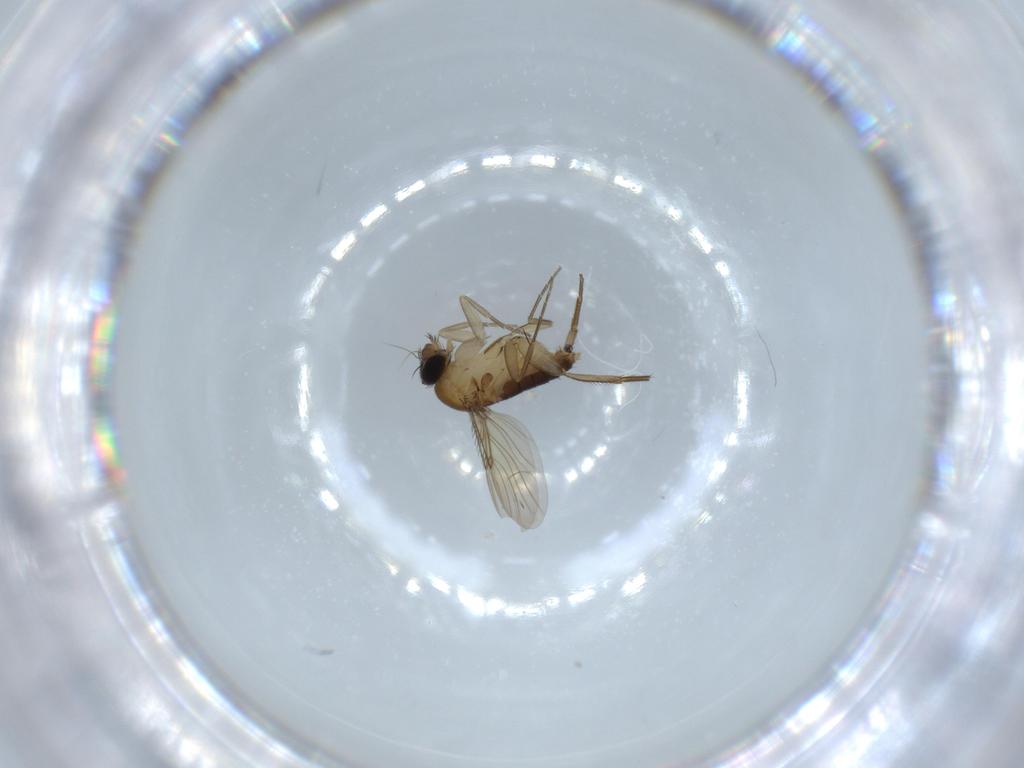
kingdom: Animalia
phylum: Arthropoda
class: Insecta
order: Diptera
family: Phoridae
